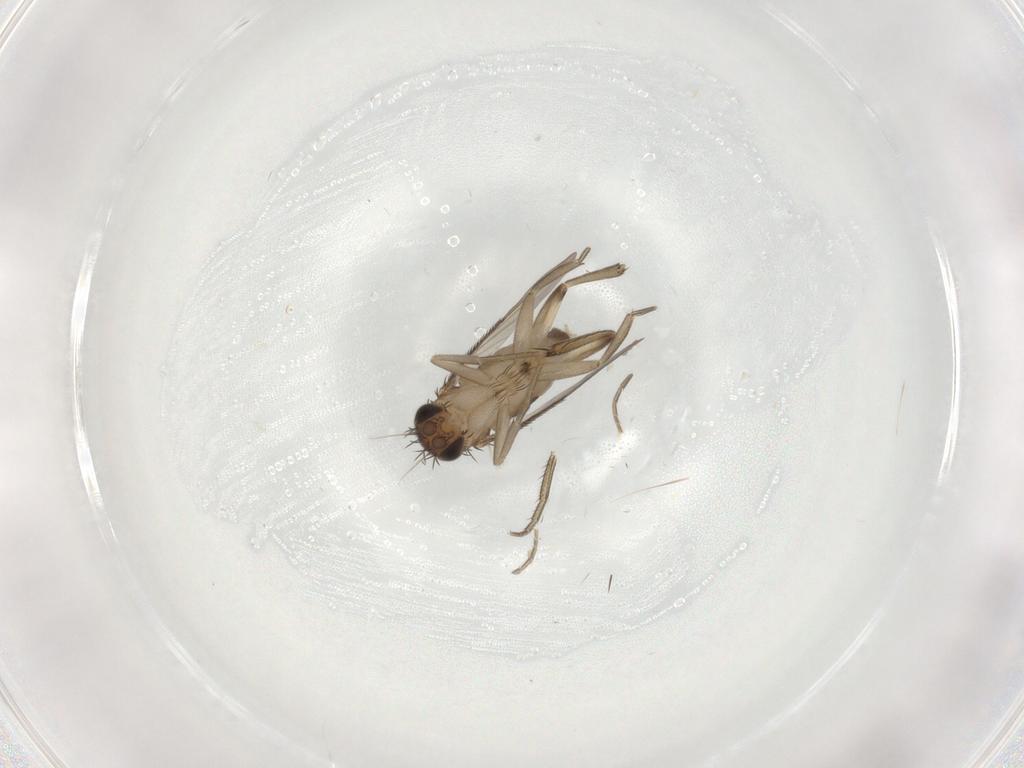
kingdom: Animalia
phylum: Arthropoda
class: Insecta
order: Diptera
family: Phoridae
